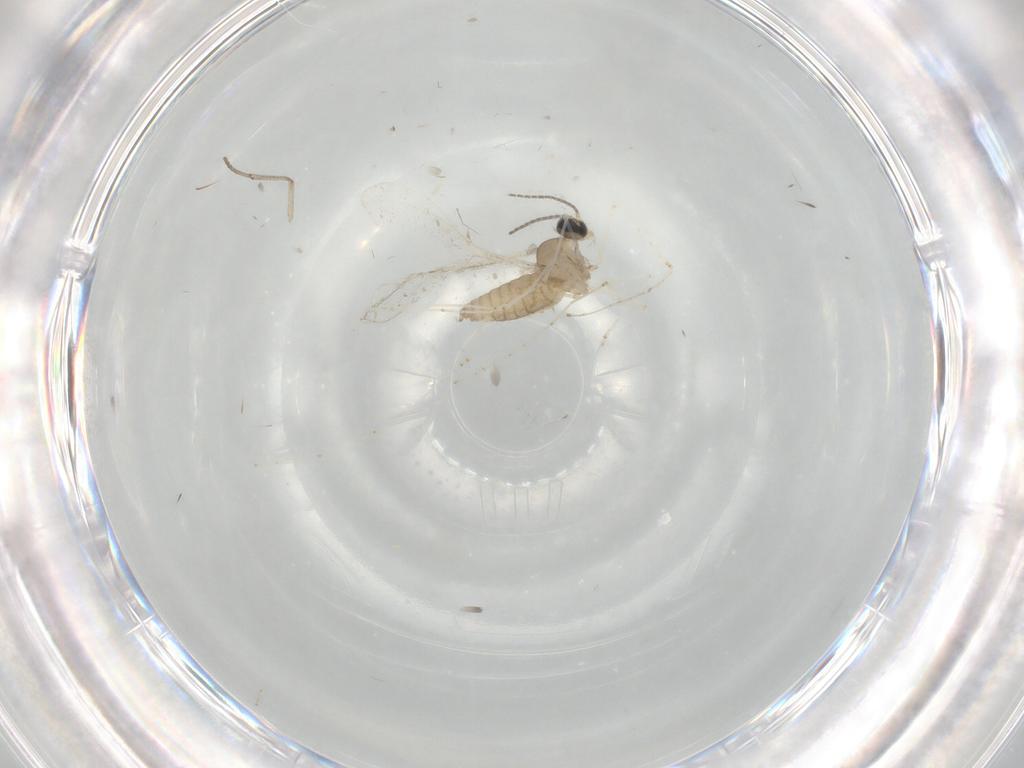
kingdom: Animalia
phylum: Arthropoda
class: Insecta
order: Diptera
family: Cecidomyiidae
